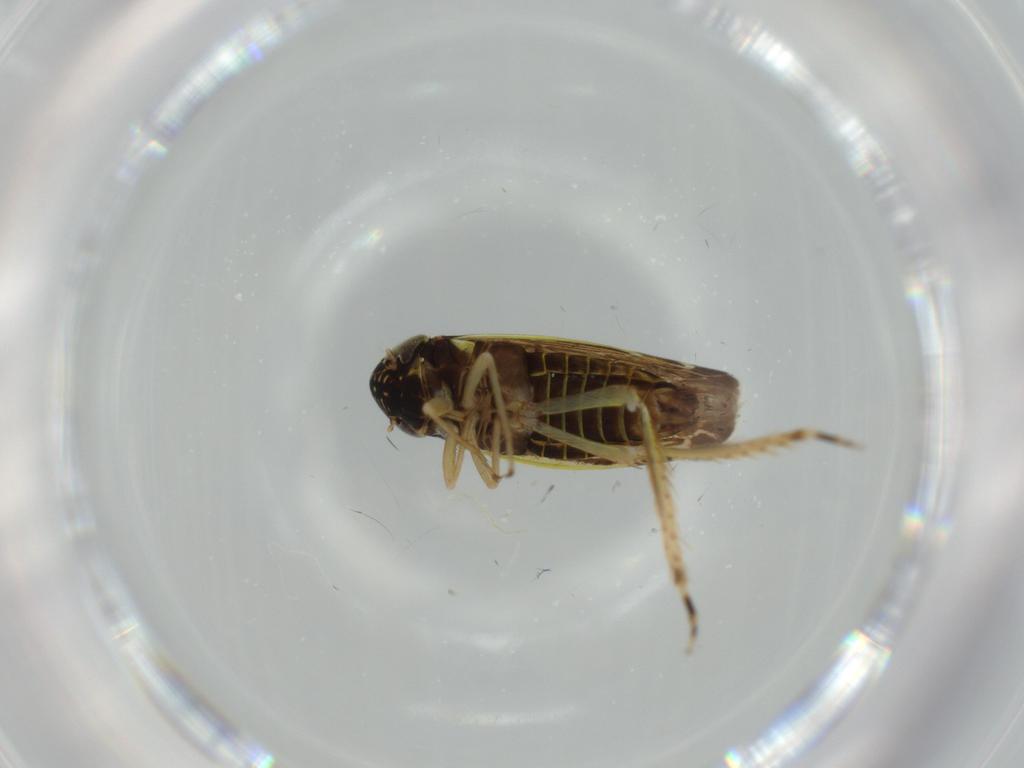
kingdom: Animalia
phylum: Arthropoda
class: Insecta
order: Hemiptera
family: Cicadellidae
